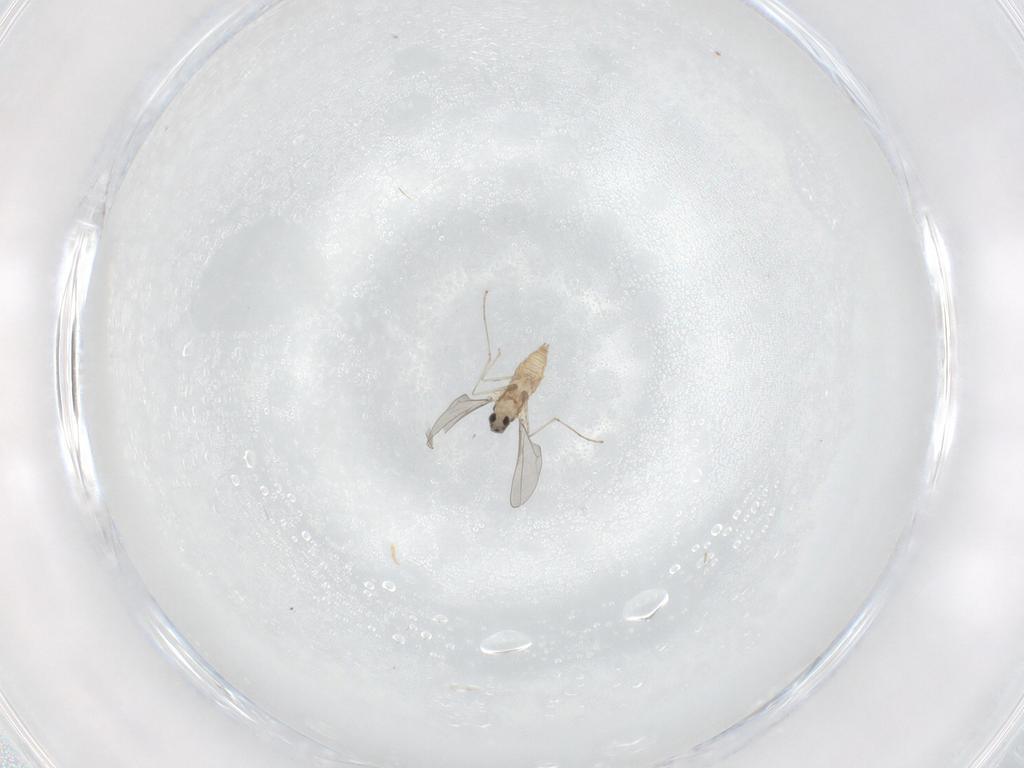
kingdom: Animalia
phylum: Arthropoda
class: Insecta
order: Diptera
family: Cecidomyiidae
